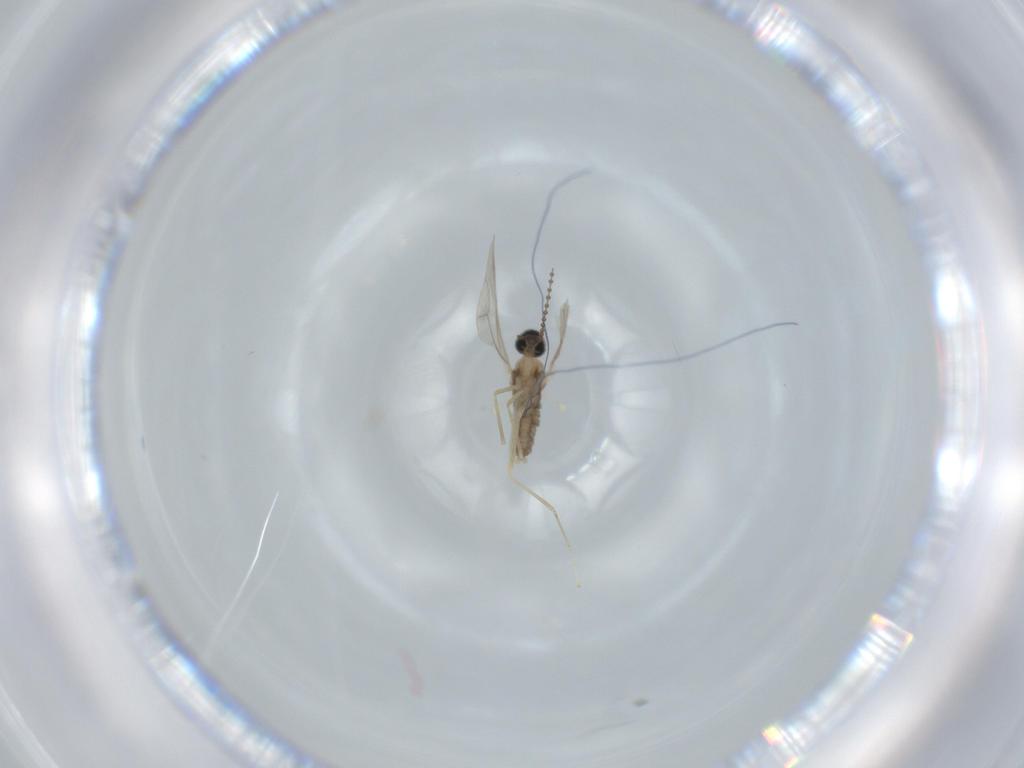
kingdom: Animalia
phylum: Arthropoda
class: Insecta
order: Diptera
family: Cecidomyiidae
